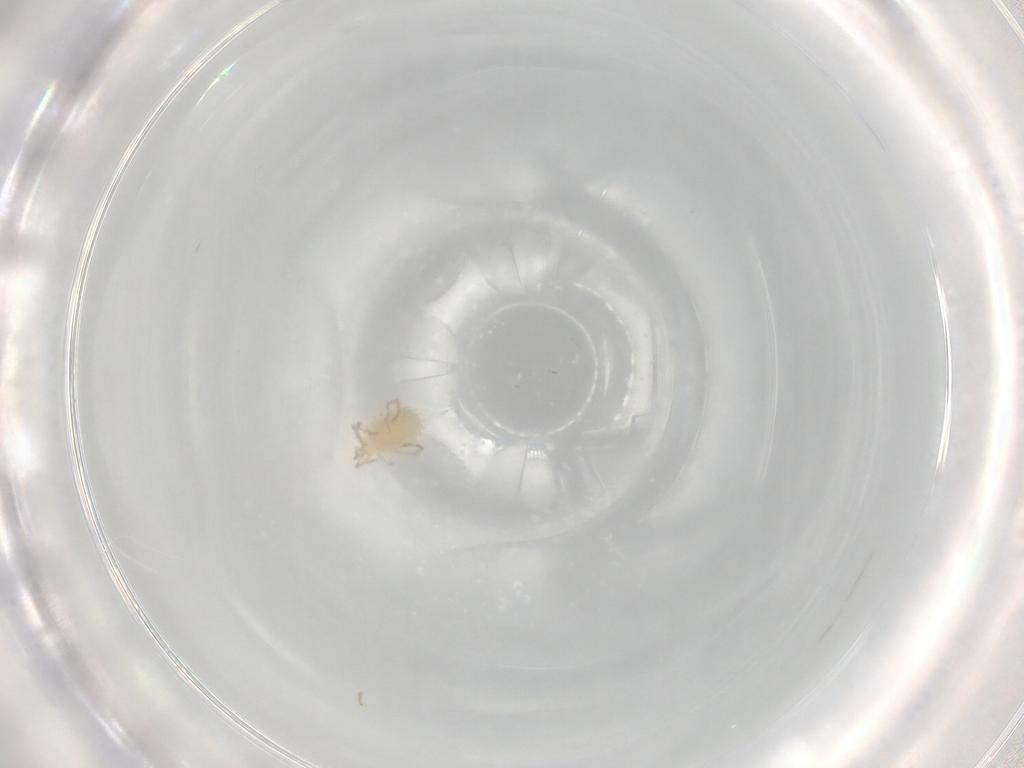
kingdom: Animalia
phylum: Arthropoda
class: Arachnida
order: Trombidiformes
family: Erythraeidae
